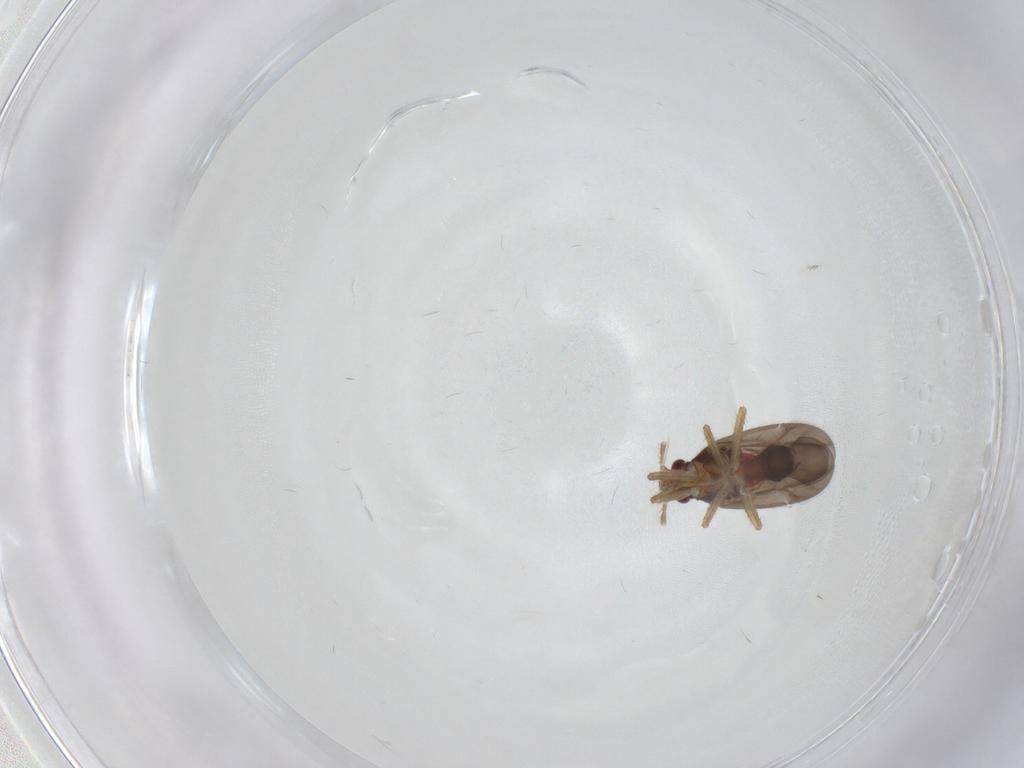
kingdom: Animalia
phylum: Arthropoda
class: Insecta
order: Hemiptera
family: Ceratocombidae
